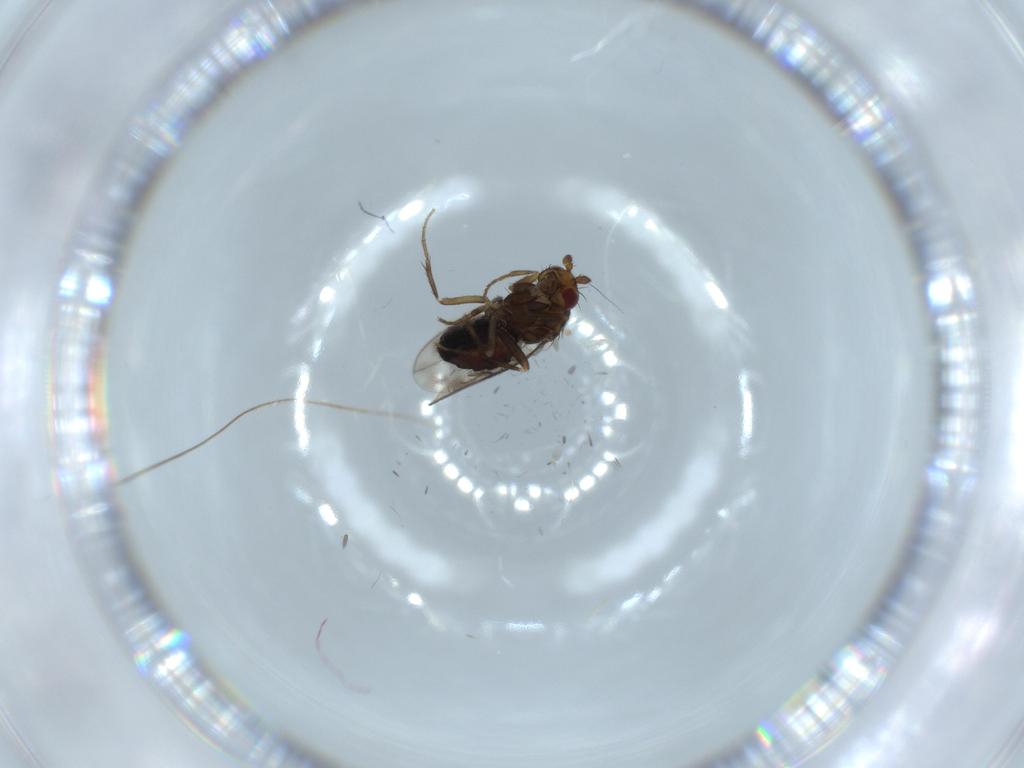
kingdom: Animalia
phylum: Arthropoda
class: Insecta
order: Diptera
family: Sphaeroceridae
